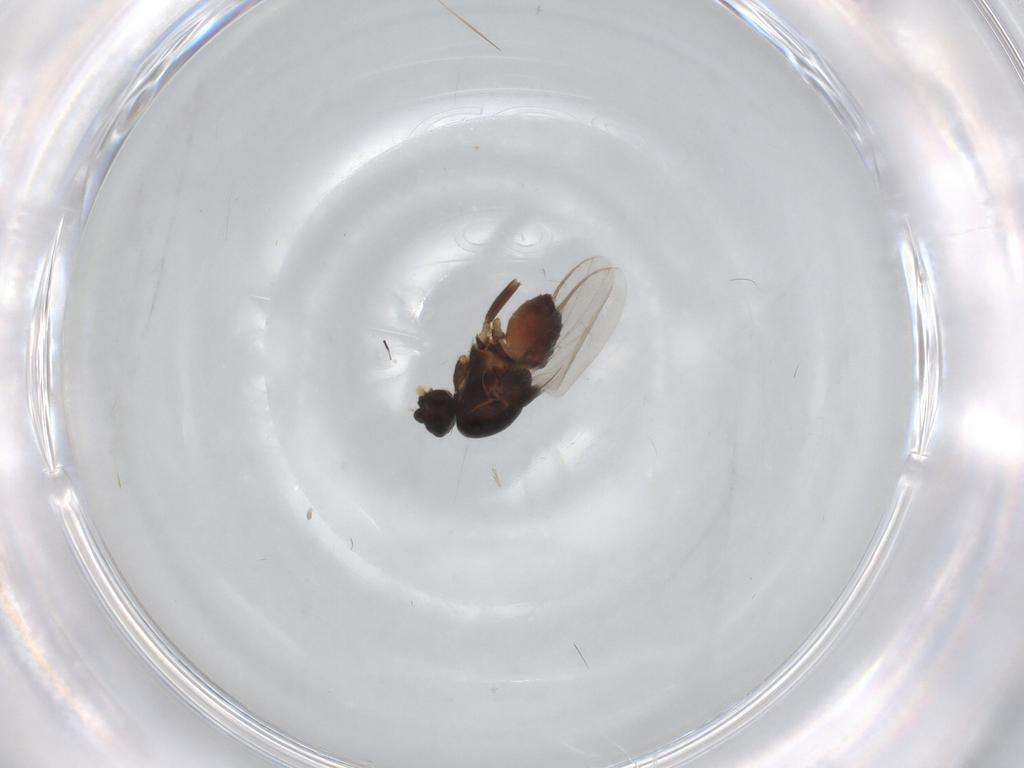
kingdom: Animalia
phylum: Arthropoda
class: Insecta
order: Diptera
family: Sphaeroceridae
